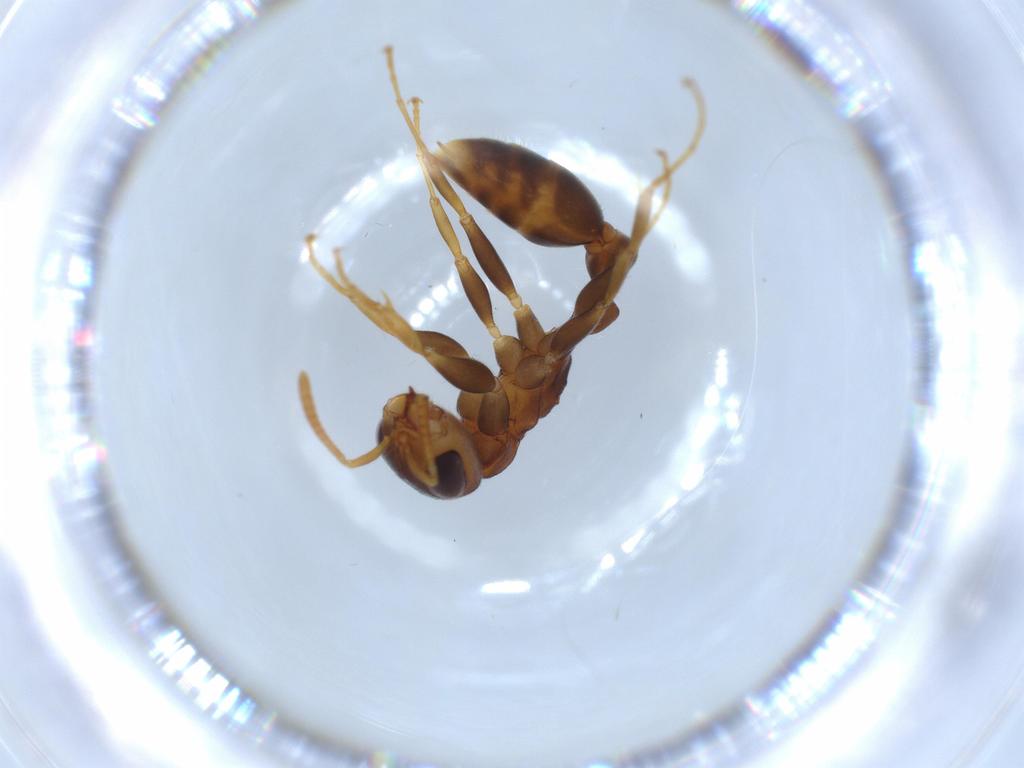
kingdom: Animalia
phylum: Arthropoda
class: Insecta
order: Hymenoptera
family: Formicidae
